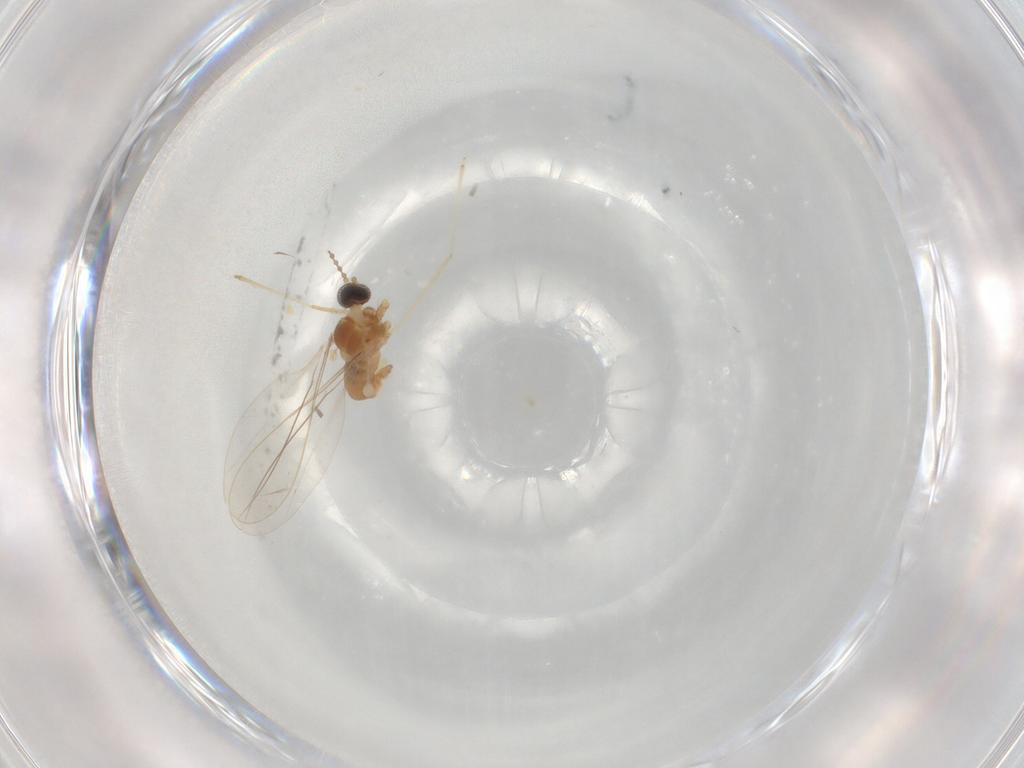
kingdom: Animalia
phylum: Arthropoda
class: Insecta
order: Diptera
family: Cecidomyiidae
